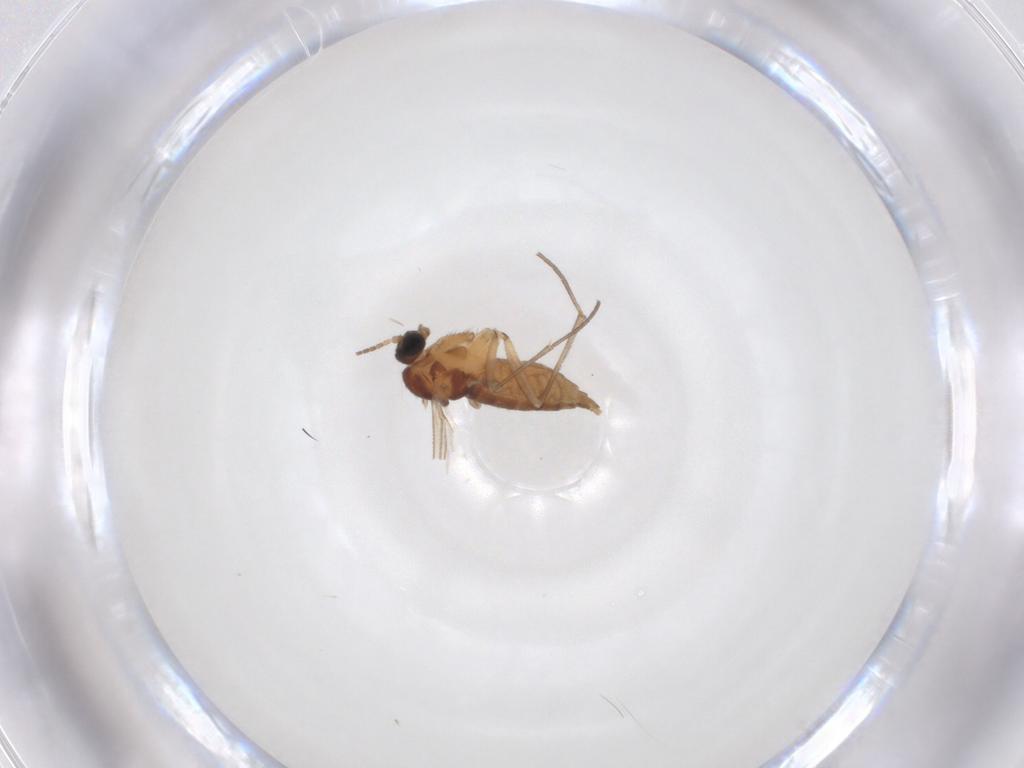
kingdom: Animalia
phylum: Arthropoda
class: Insecta
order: Diptera
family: Sciaridae
